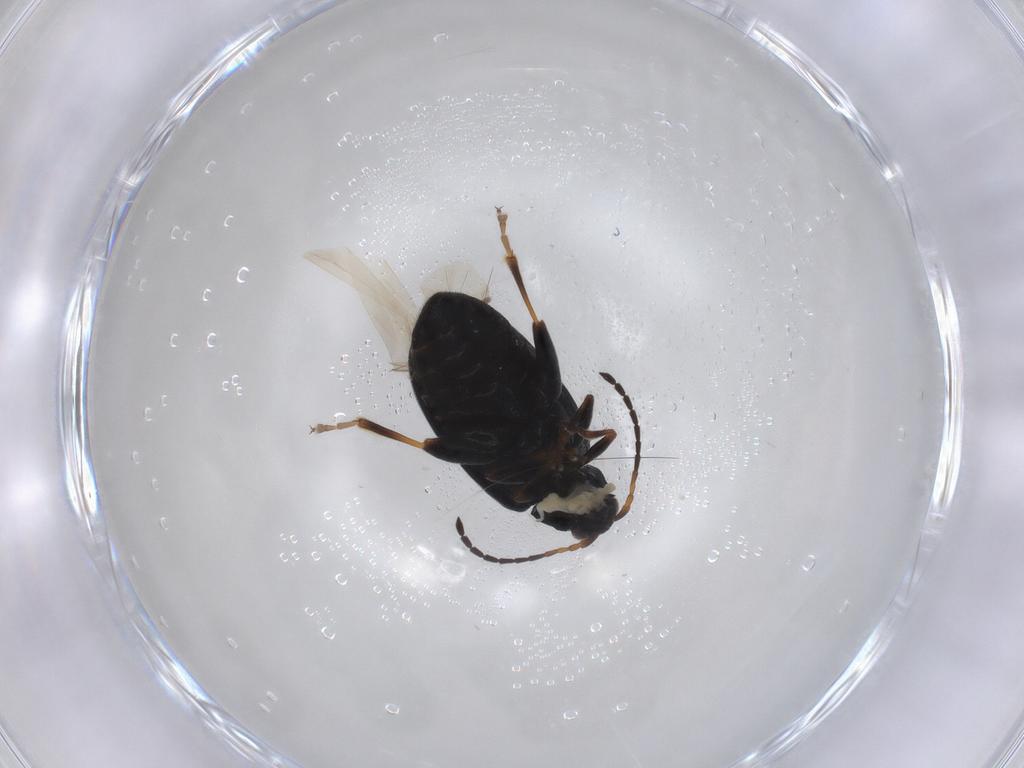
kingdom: Animalia
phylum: Arthropoda
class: Insecta
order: Coleoptera
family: Chrysomelidae
